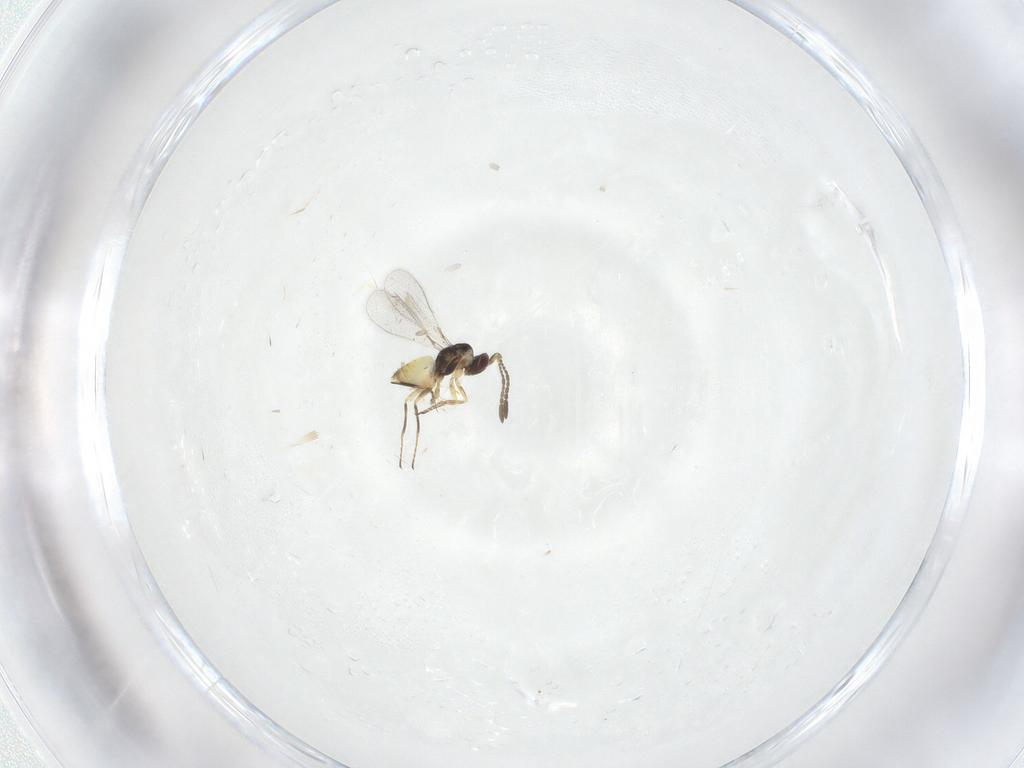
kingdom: Animalia
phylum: Arthropoda
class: Insecta
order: Hymenoptera
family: Mymaridae
